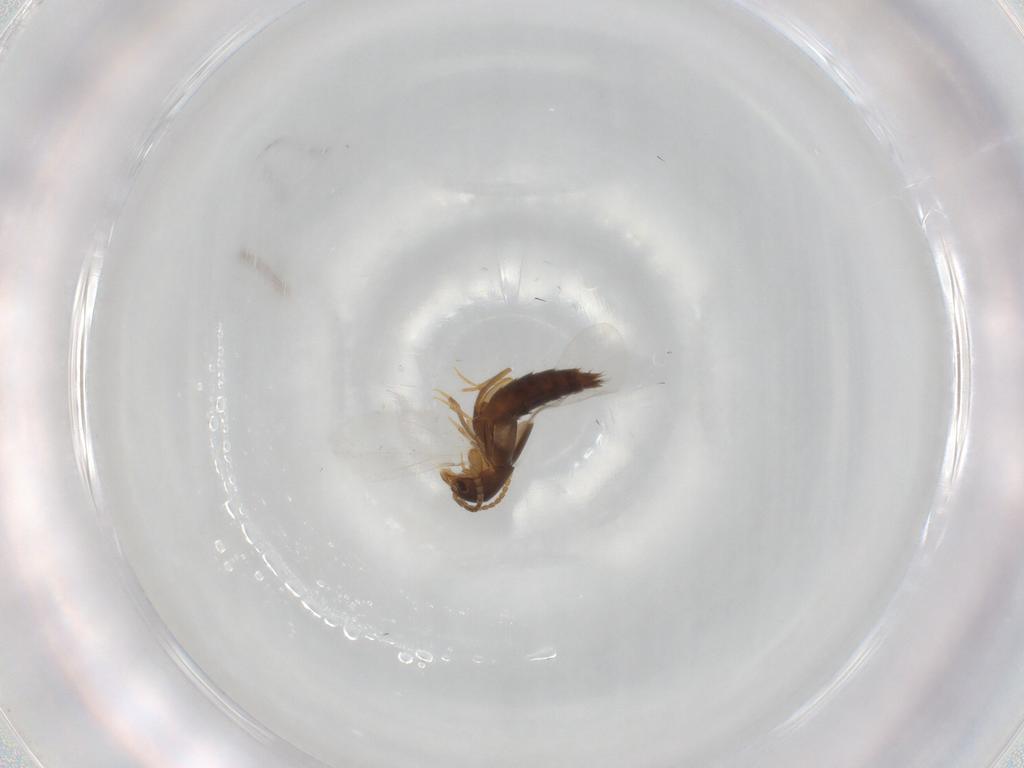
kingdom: Animalia
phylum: Arthropoda
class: Insecta
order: Coleoptera
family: Staphylinidae
